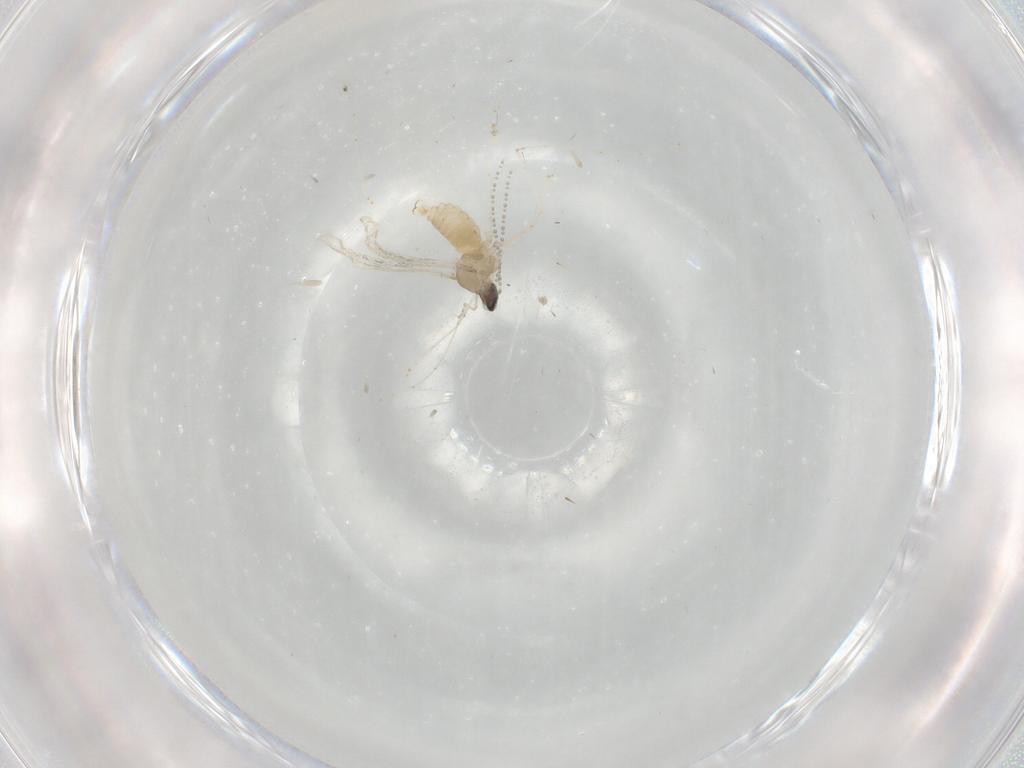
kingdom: Animalia
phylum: Arthropoda
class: Insecta
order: Diptera
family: Cecidomyiidae
